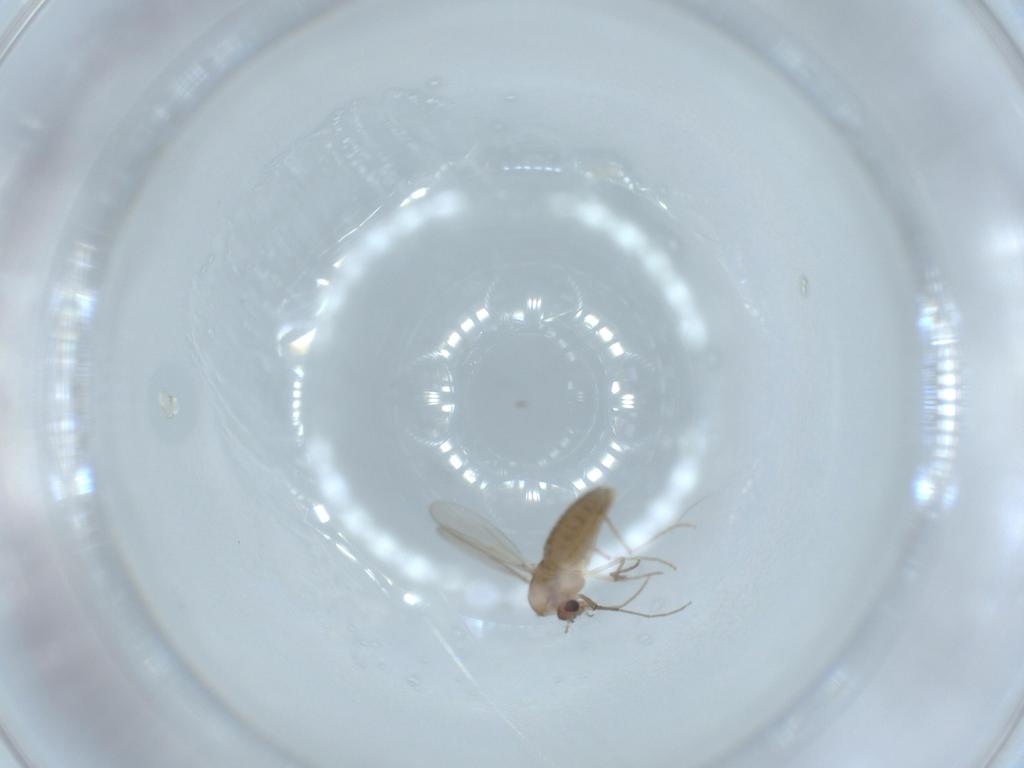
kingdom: Animalia
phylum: Arthropoda
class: Insecta
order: Diptera
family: Chironomidae
